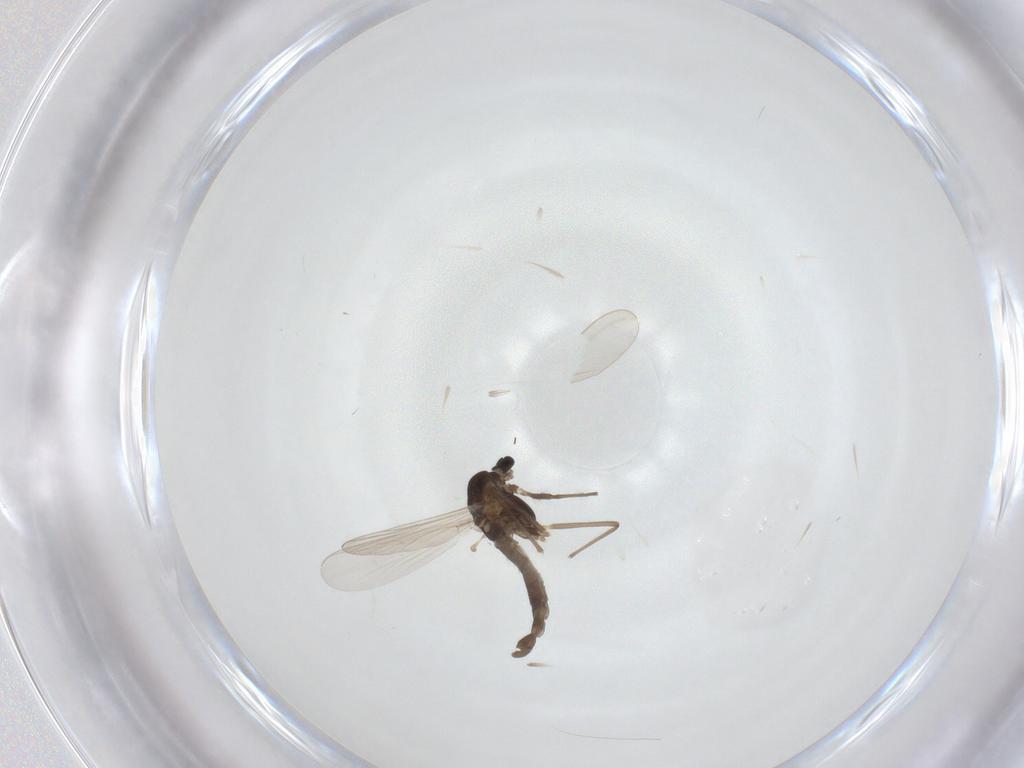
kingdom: Animalia
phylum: Arthropoda
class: Insecta
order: Diptera
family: Chironomidae
